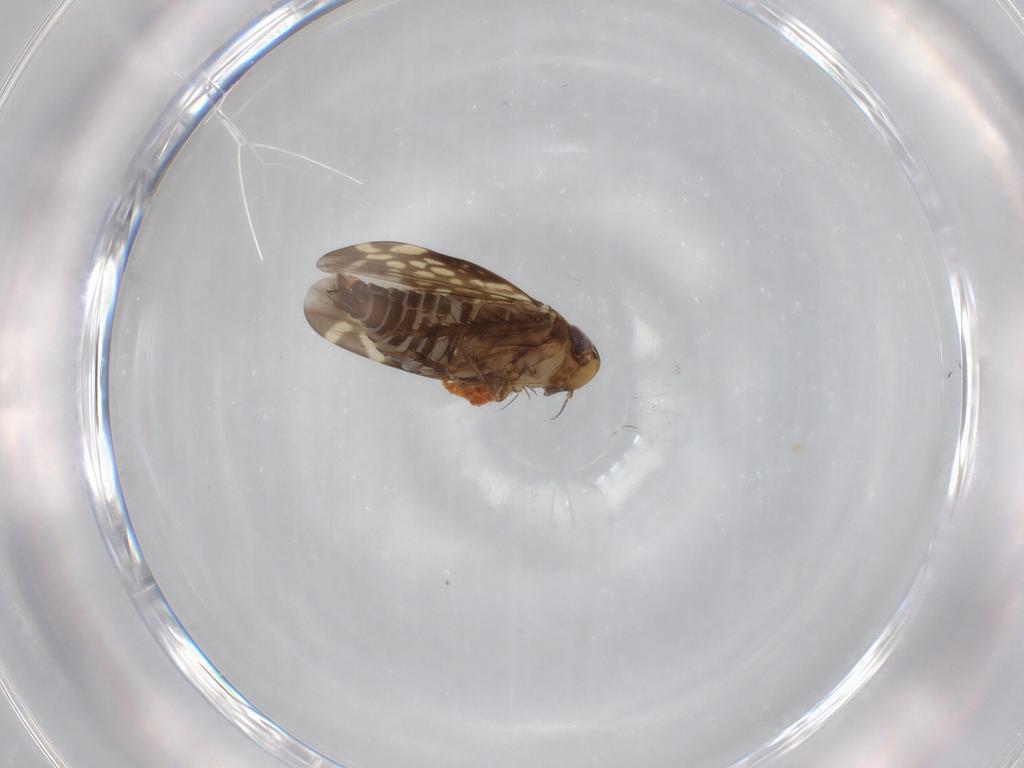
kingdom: Animalia
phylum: Arthropoda
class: Insecta
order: Hemiptera
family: Cicadellidae
